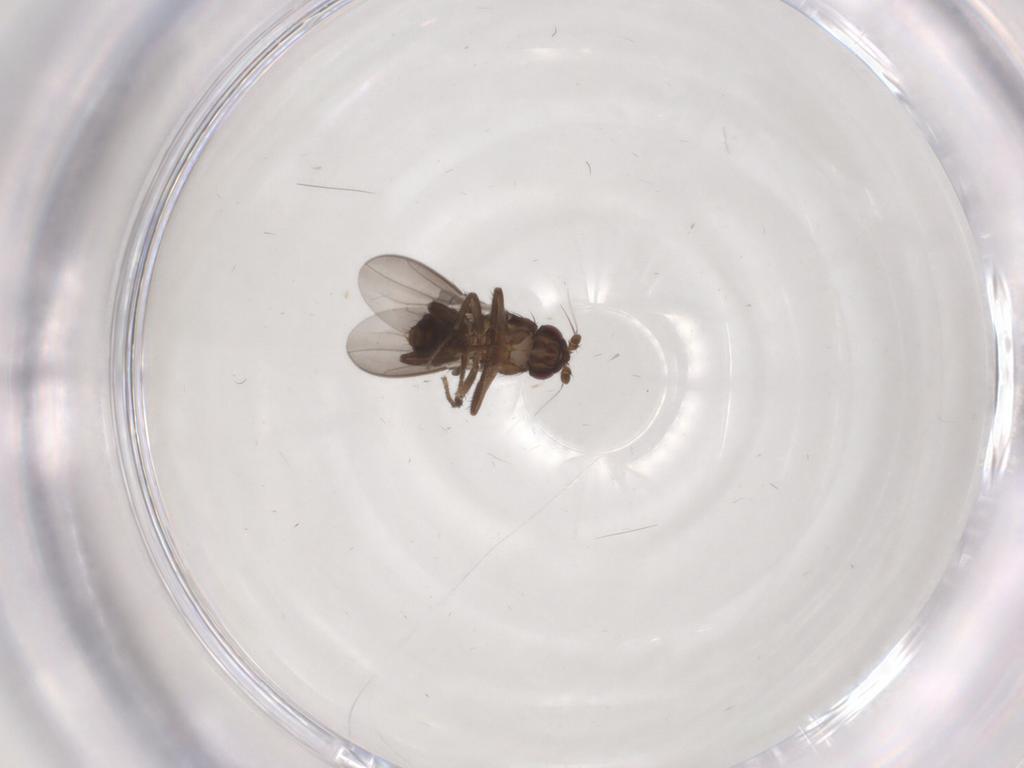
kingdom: Animalia
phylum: Arthropoda
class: Insecta
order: Diptera
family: Sphaeroceridae
